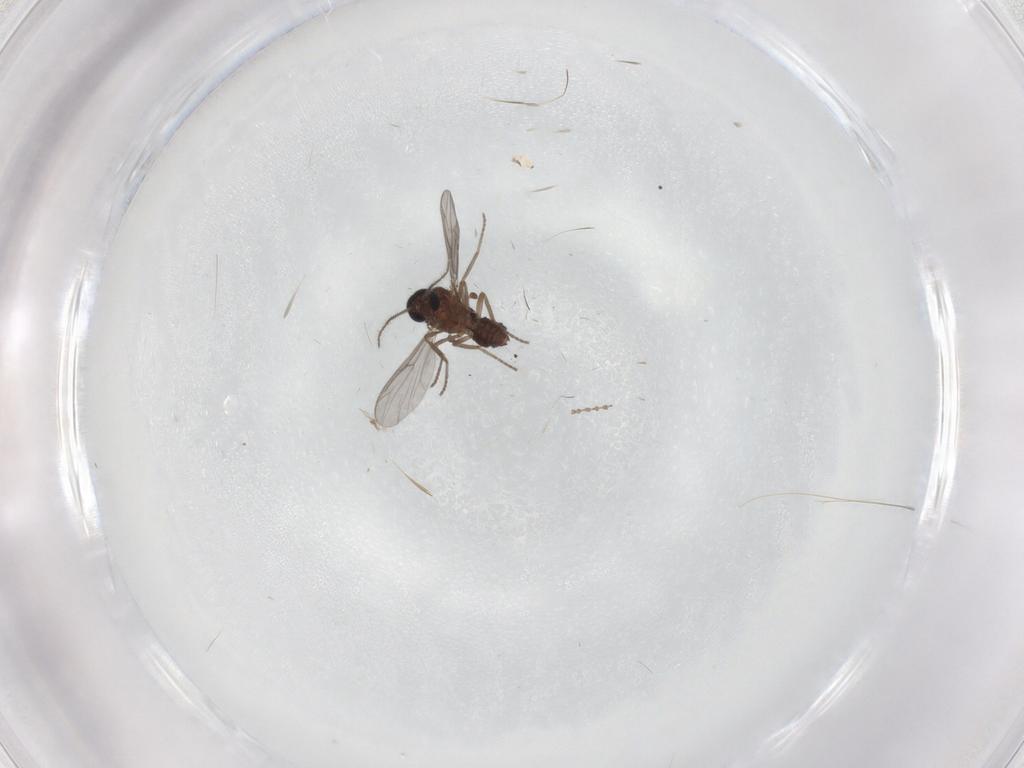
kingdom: Animalia
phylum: Arthropoda
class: Insecta
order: Diptera
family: Ceratopogonidae
